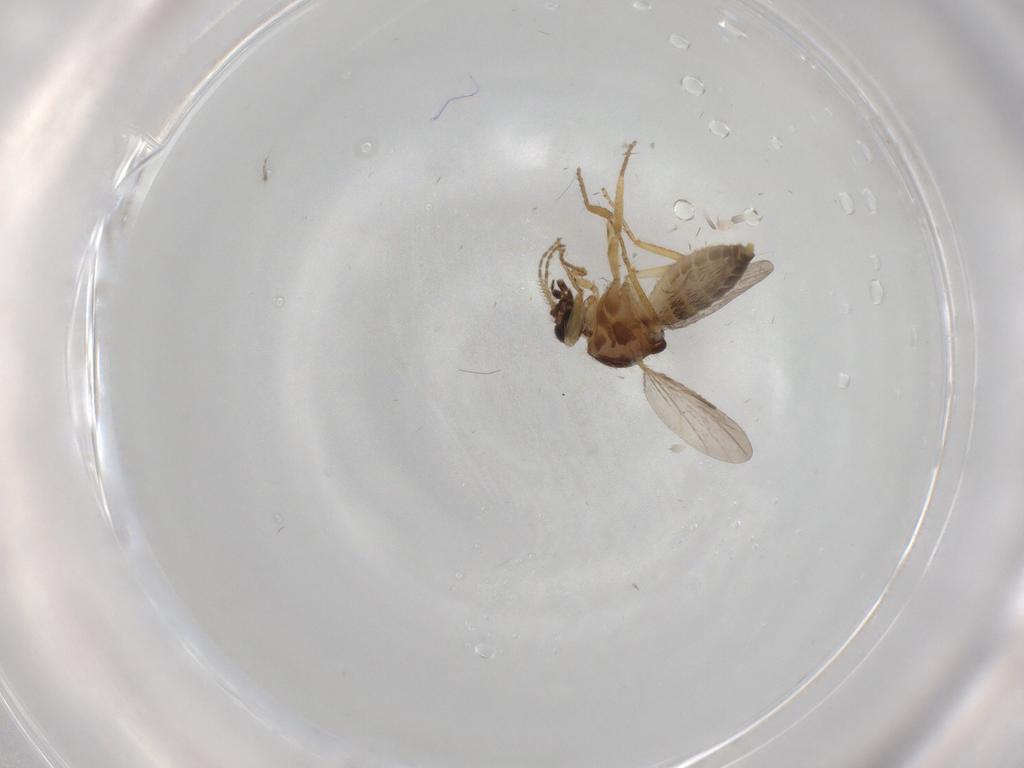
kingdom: Animalia
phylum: Arthropoda
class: Insecta
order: Diptera
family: Ceratopogonidae
